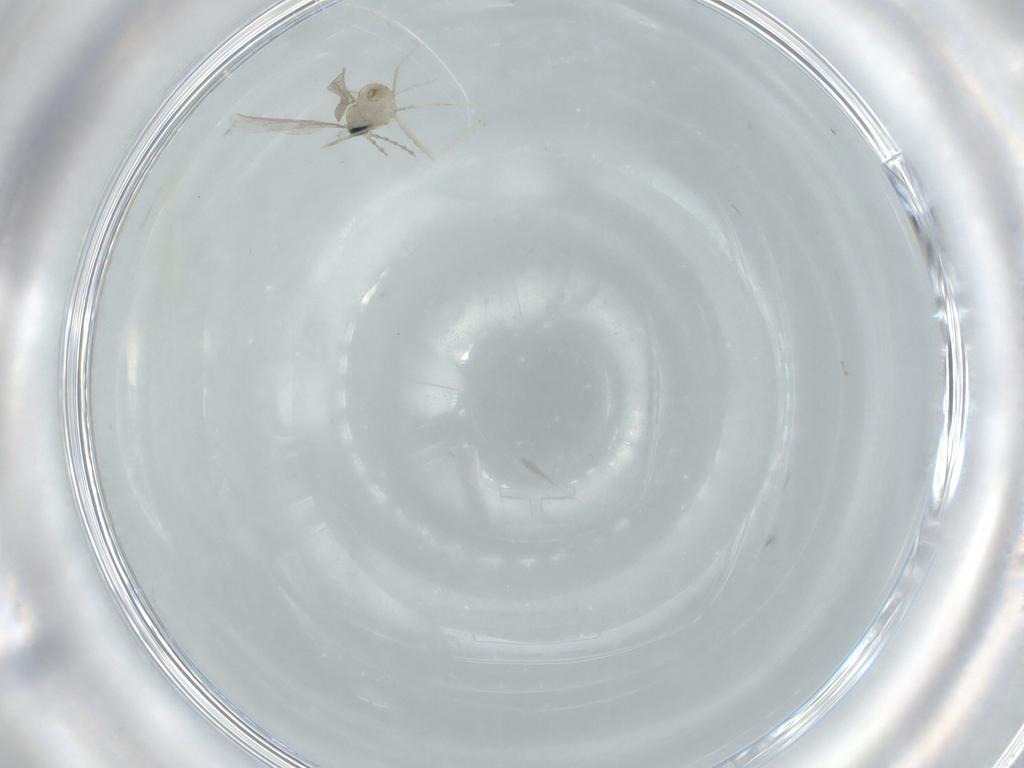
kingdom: Animalia
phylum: Arthropoda
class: Insecta
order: Diptera
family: Cecidomyiidae
